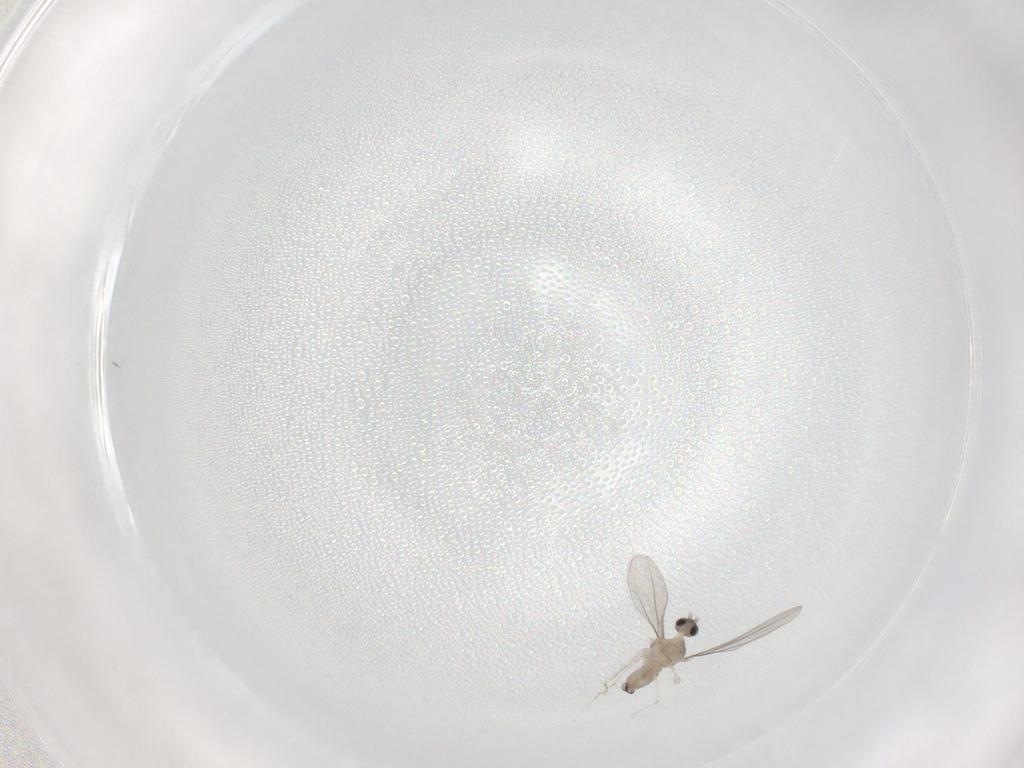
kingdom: Animalia
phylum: Arthropoda
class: Insecta
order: Diptera
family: Cecidomyiidae
